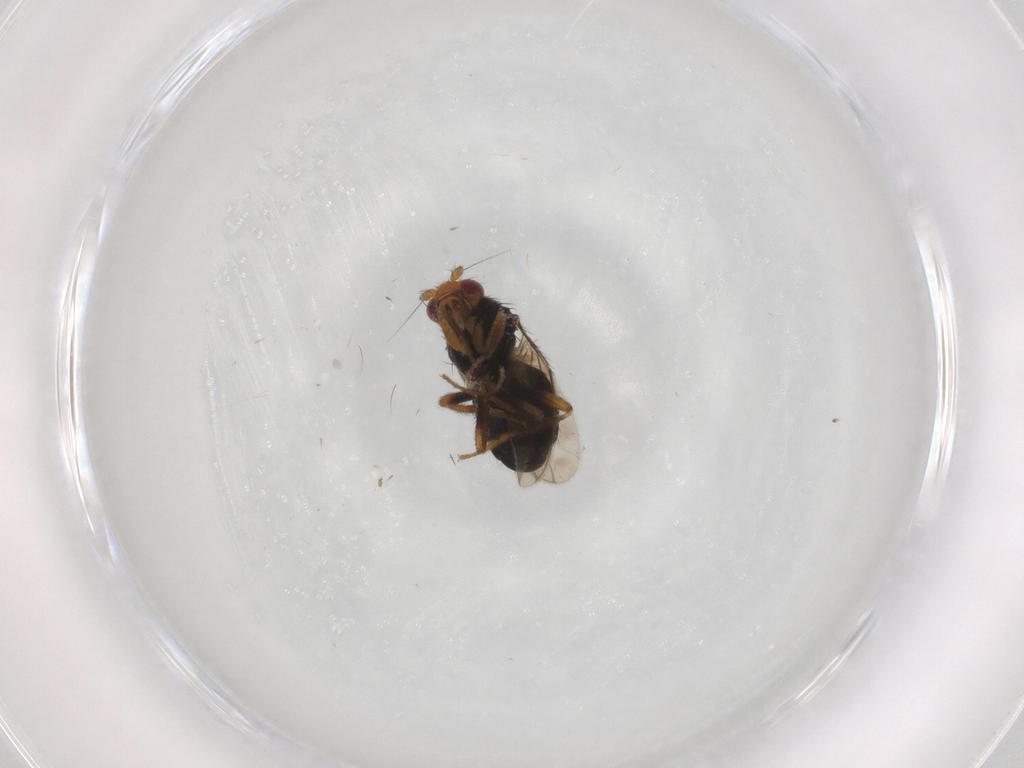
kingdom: Animalia
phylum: Arthropoda
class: Insecta
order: Diptera
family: Sphaeroceridae
